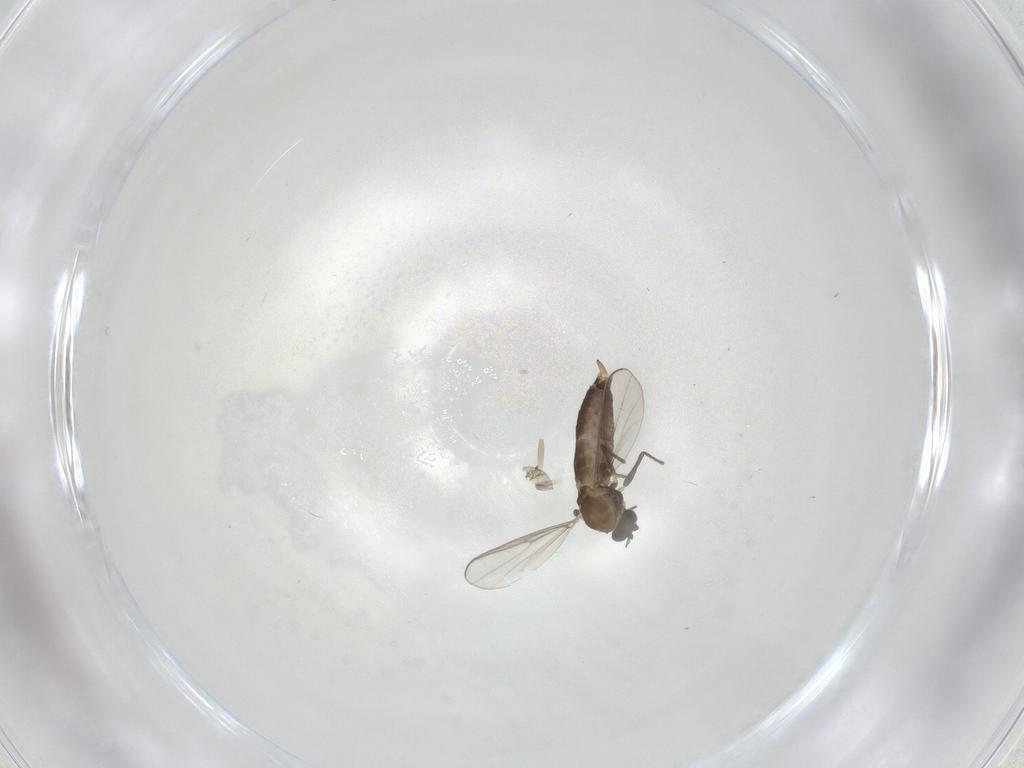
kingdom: Animalia
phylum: Arthropoda
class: Insecta
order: Diptera
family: Chironomidae
